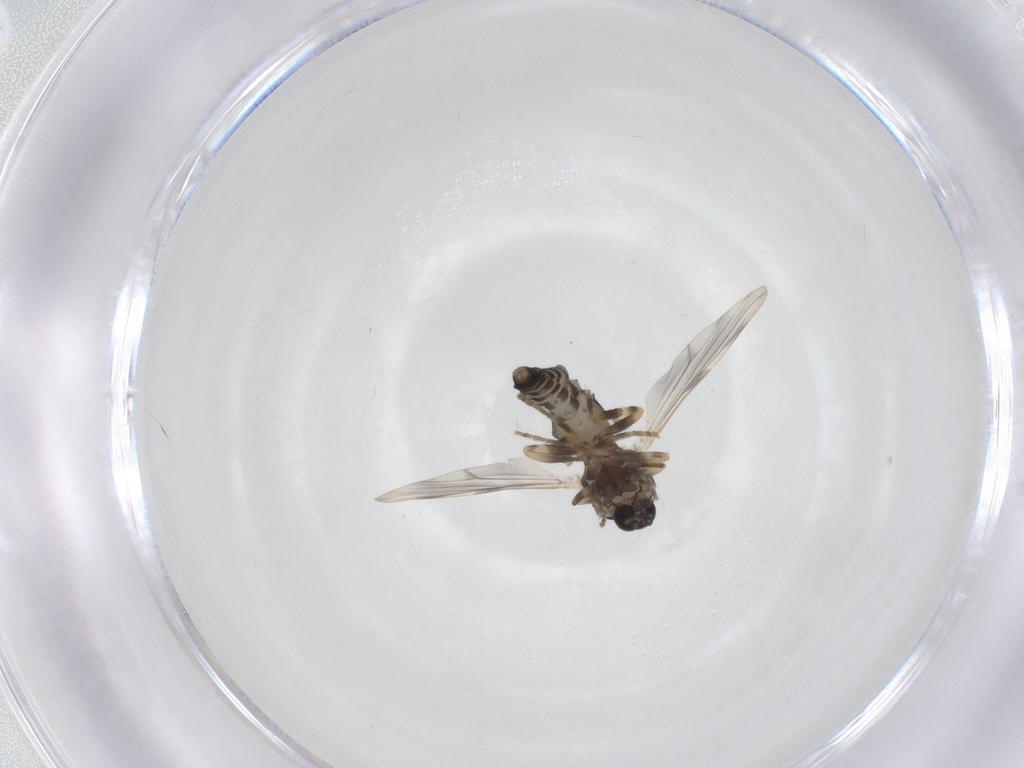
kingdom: Animalia
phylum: Arthropoda
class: Insecta
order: Diptera
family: Ceratopogonidae
